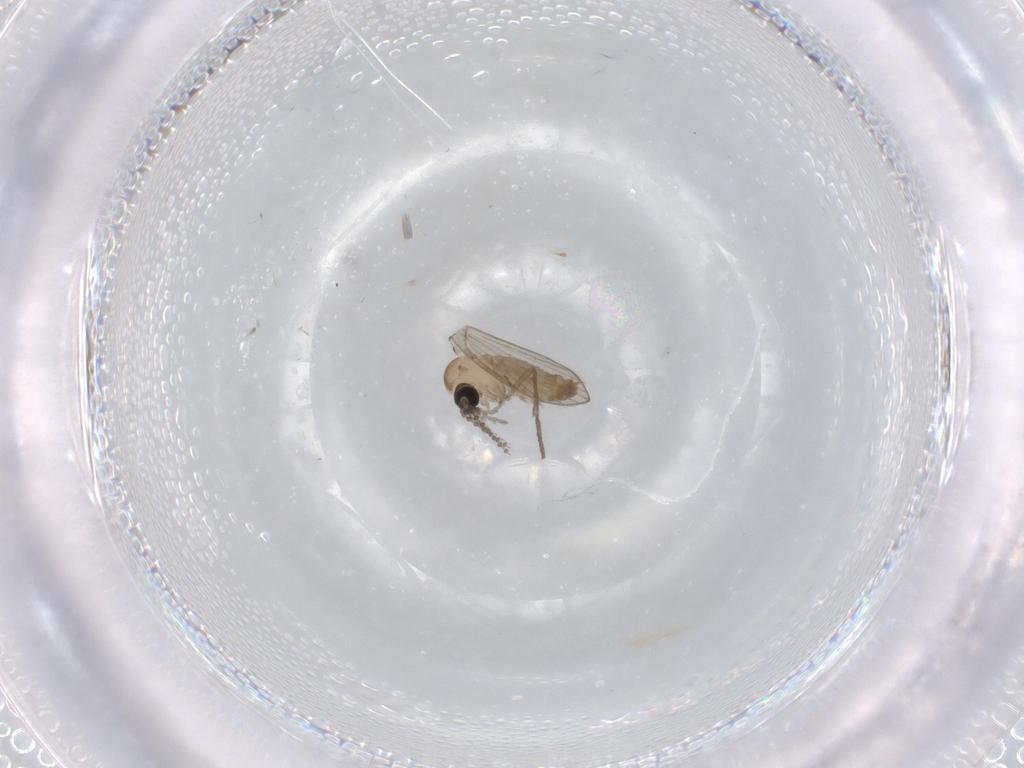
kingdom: Animalia
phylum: Arthropoda
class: Insecta
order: Diptera
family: Psychodidae
